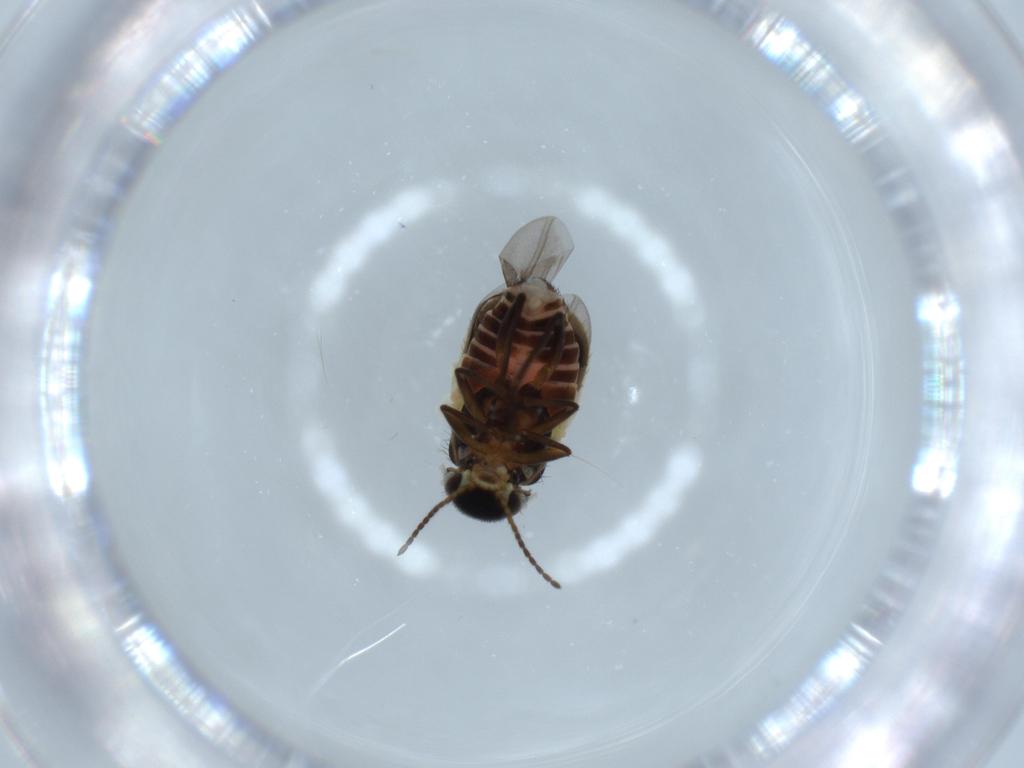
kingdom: Animalia
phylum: Arthropoda
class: Insecta
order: Coleoptera
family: Melyridae
